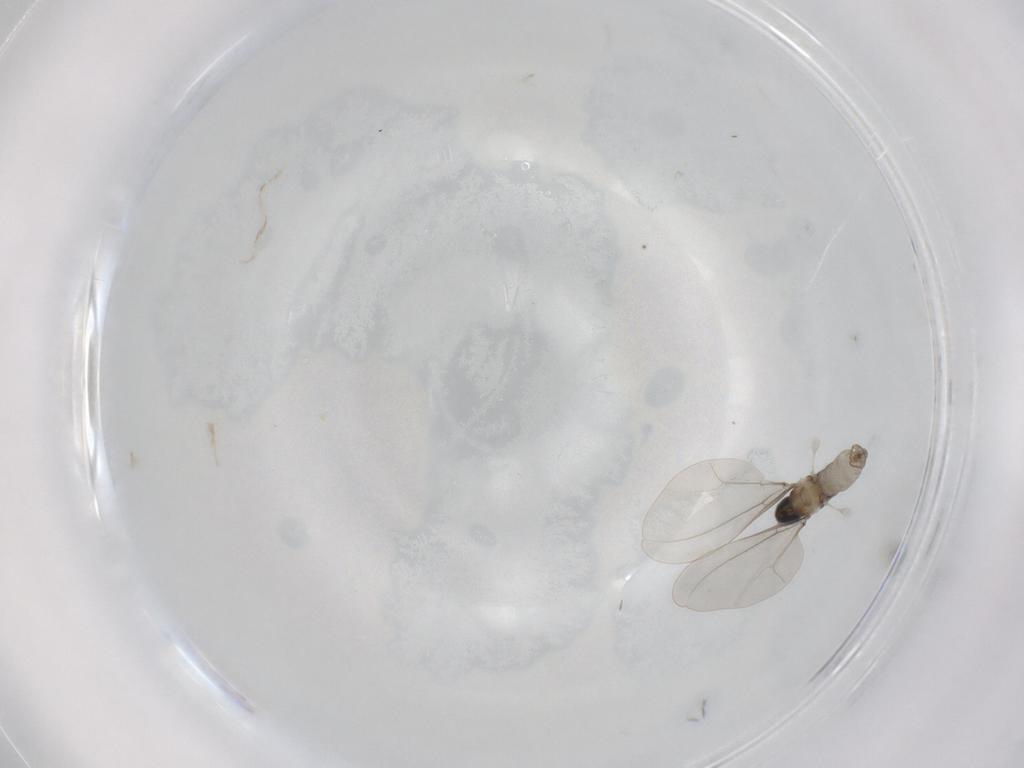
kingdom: Animalia
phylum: Arthropoda
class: Insecta
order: Diptera
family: Cecidomyiidae
